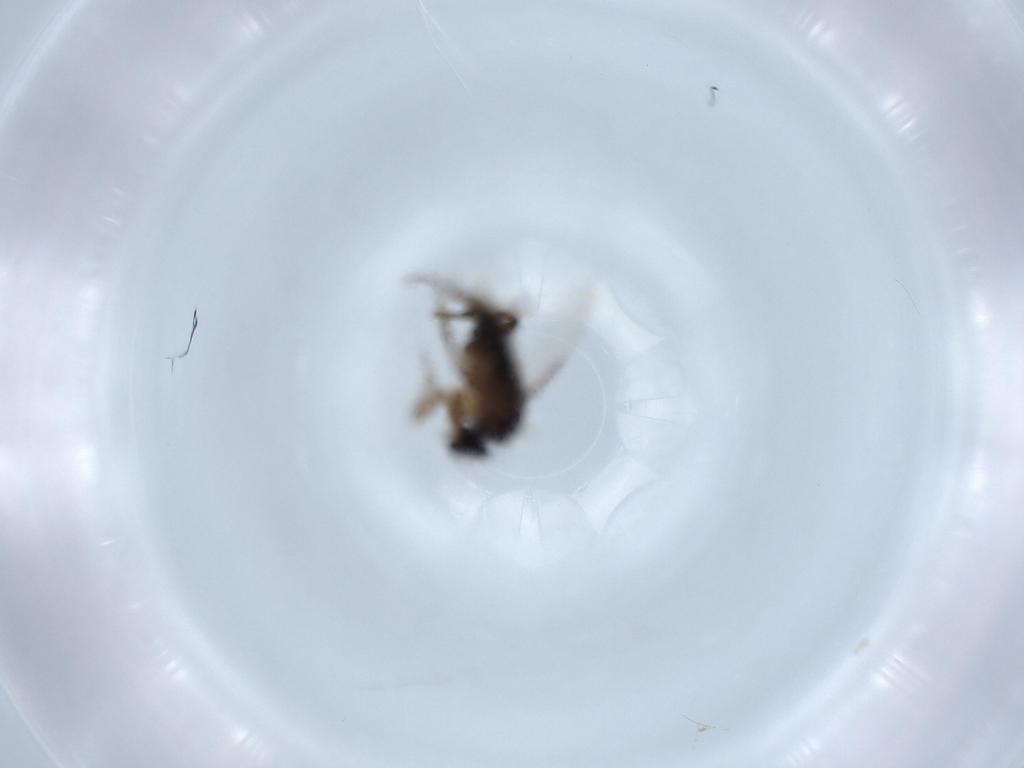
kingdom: Animalia
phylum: Arthropoda
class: Insecta
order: Diptera
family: Phoridae
